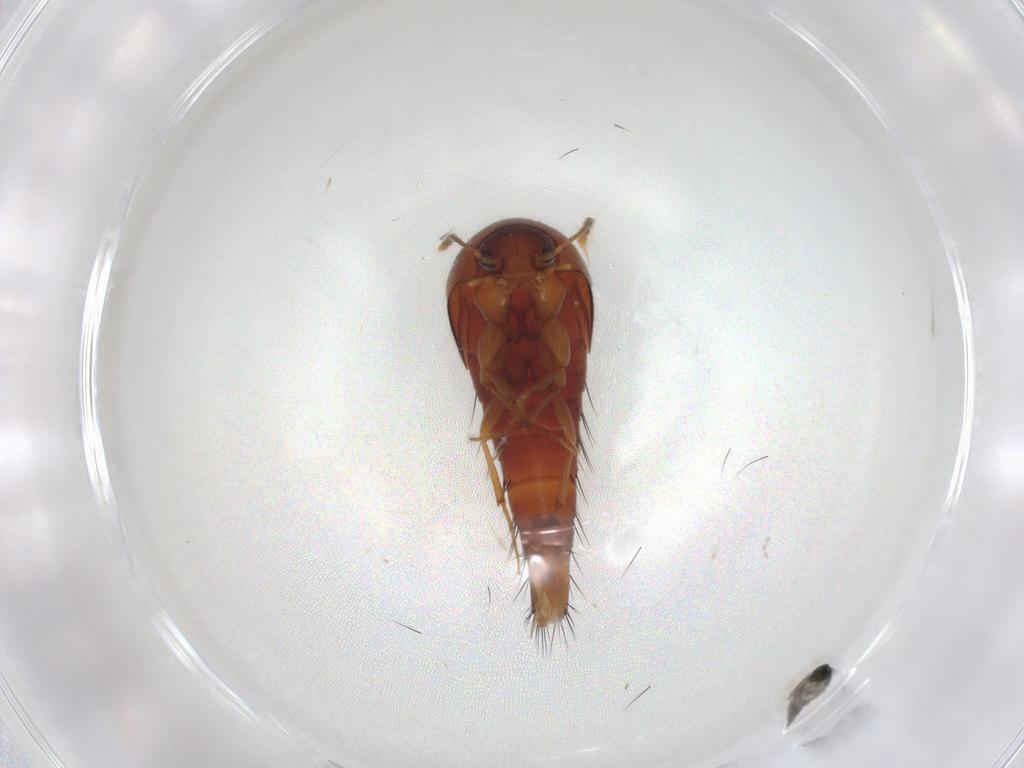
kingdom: Animalia
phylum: Arthropoda
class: Insecta
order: Coleoptera
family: Staphylinidae
